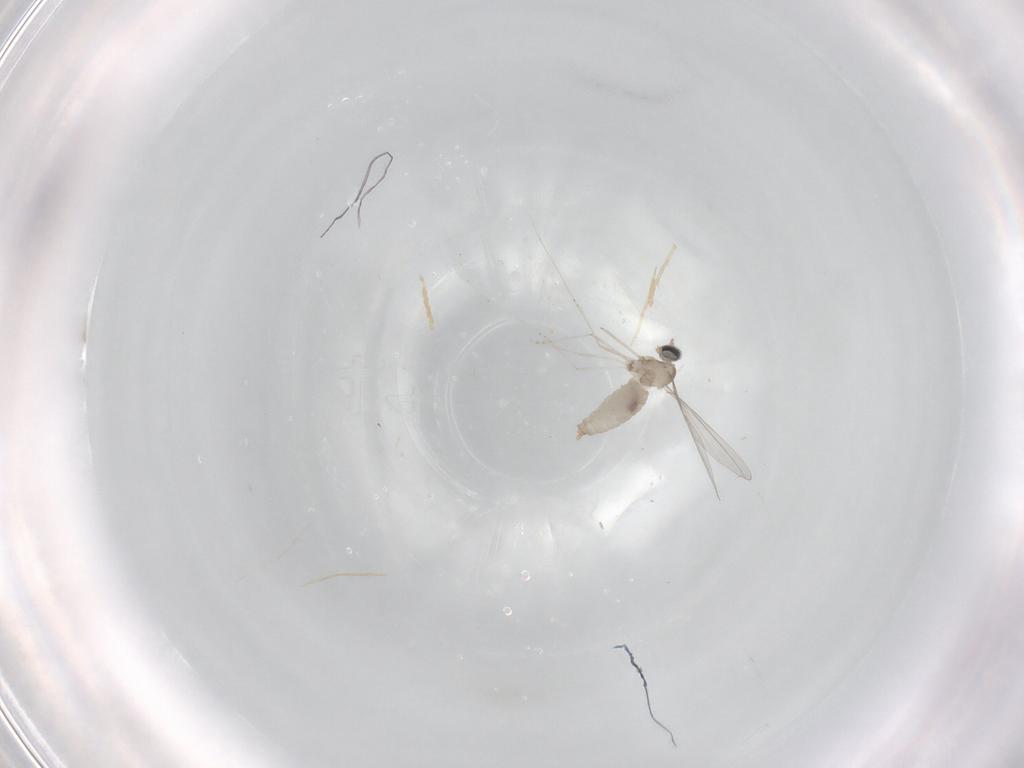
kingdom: Animalia
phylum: Arthropoda
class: Insecta
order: Diptera
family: Cecidomyiidae
